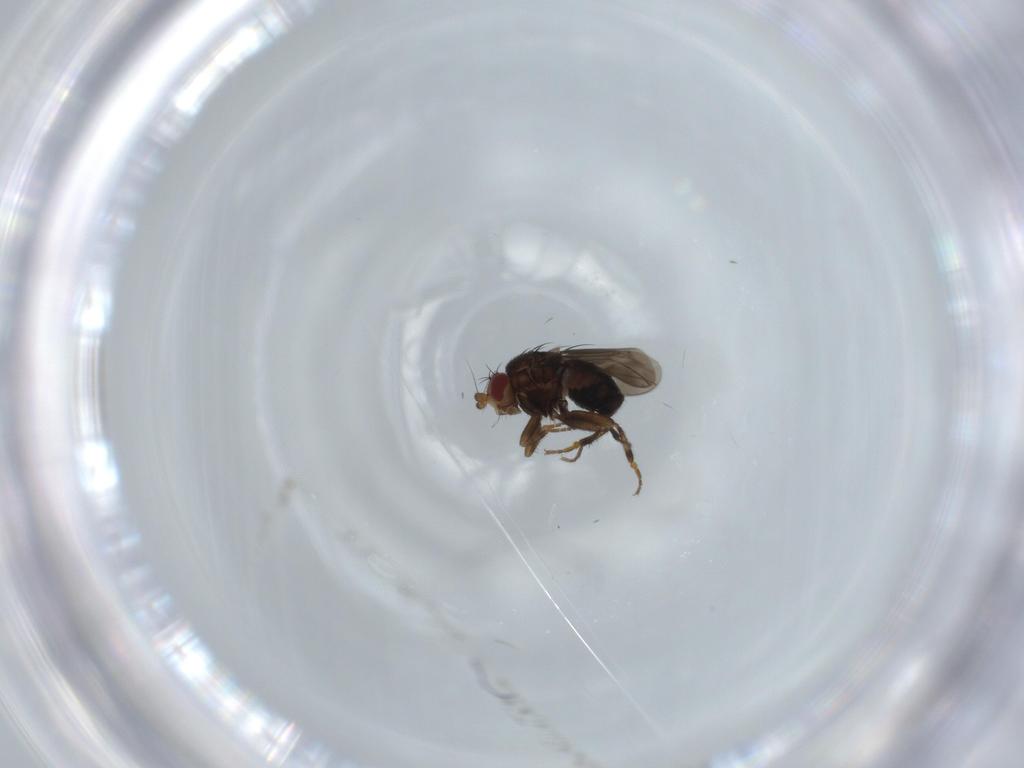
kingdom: Animalia
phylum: Arthropoda
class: Insecta
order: Diptera
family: Sphaeroceridae
